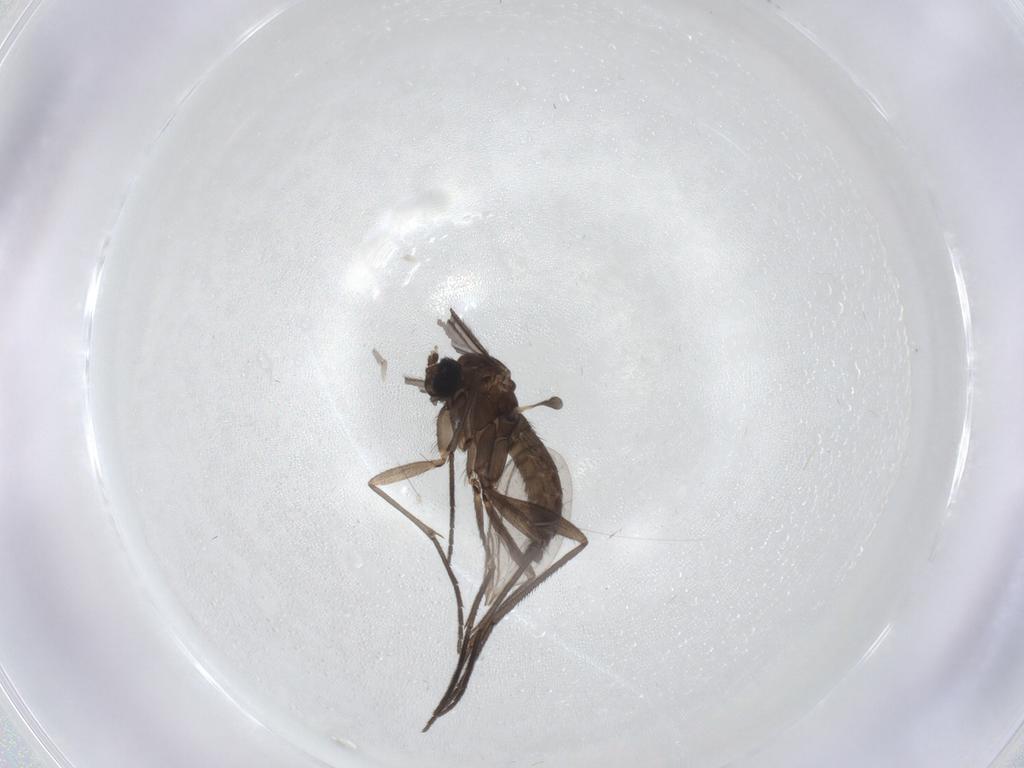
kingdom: Animalia
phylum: Arthropoda
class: Insecta
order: Diptera
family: Sciaridae
